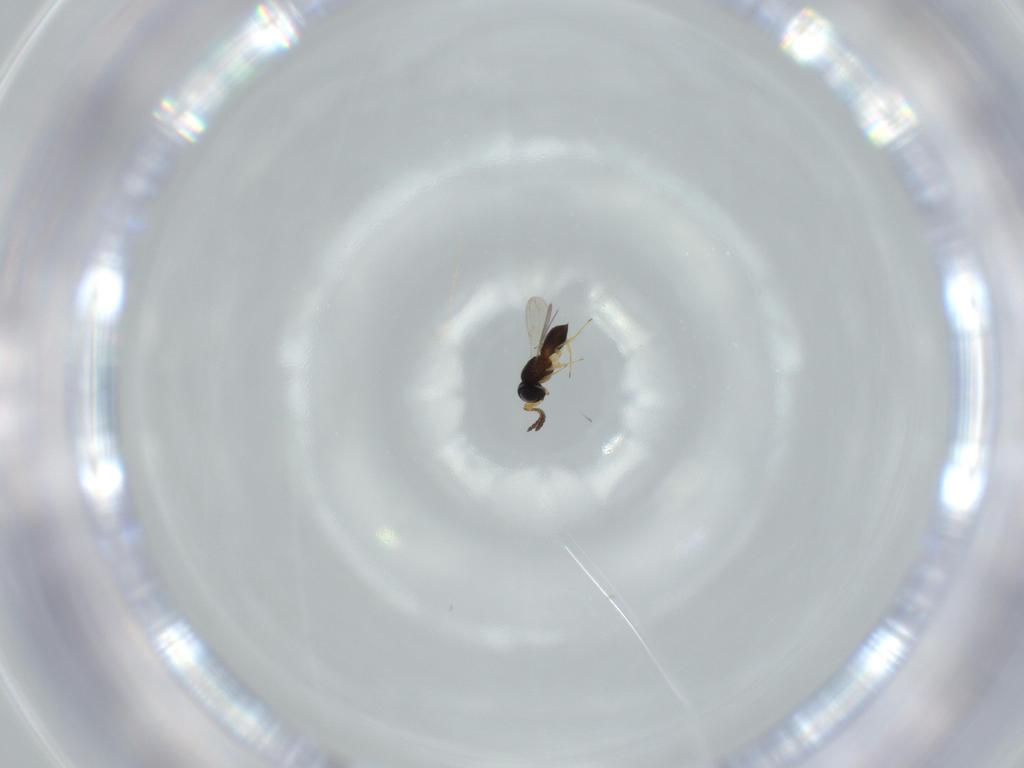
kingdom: Animalia
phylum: Arthropoda
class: Insecta
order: Hymenoptera
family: Scelionidae
